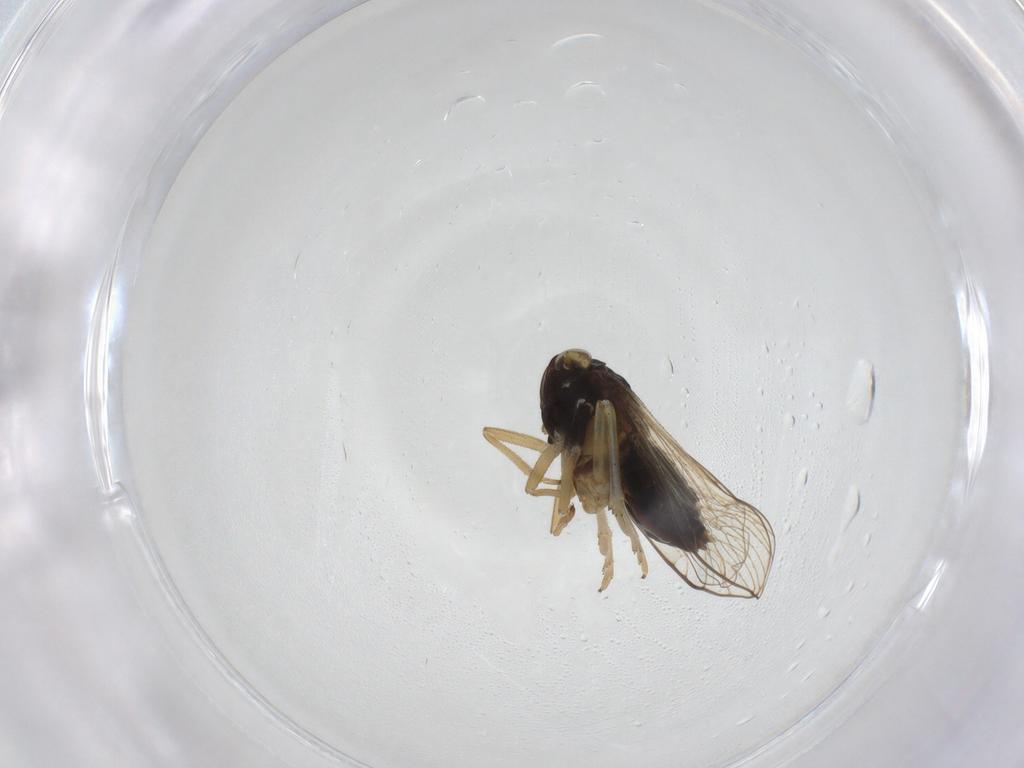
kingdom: Animalia
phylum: Arthropoda
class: Insecta
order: Hemiptera
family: Delphacidae
